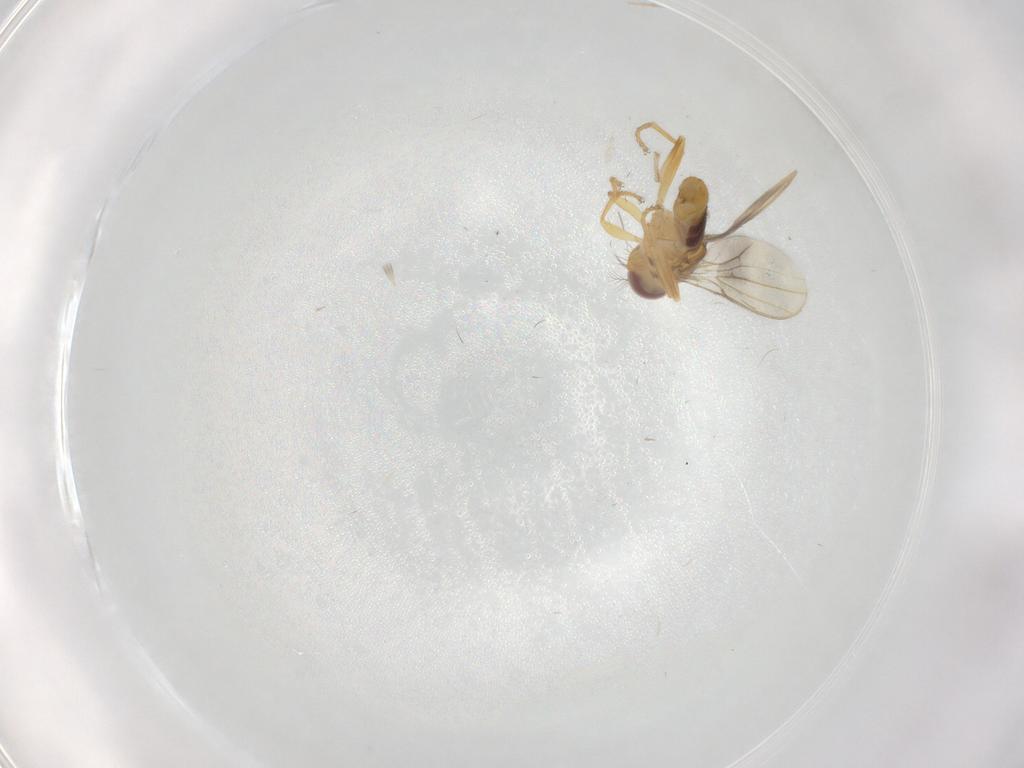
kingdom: Animalia
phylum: Arthropoda
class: Insecta
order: Diptera
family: Periscelididae
